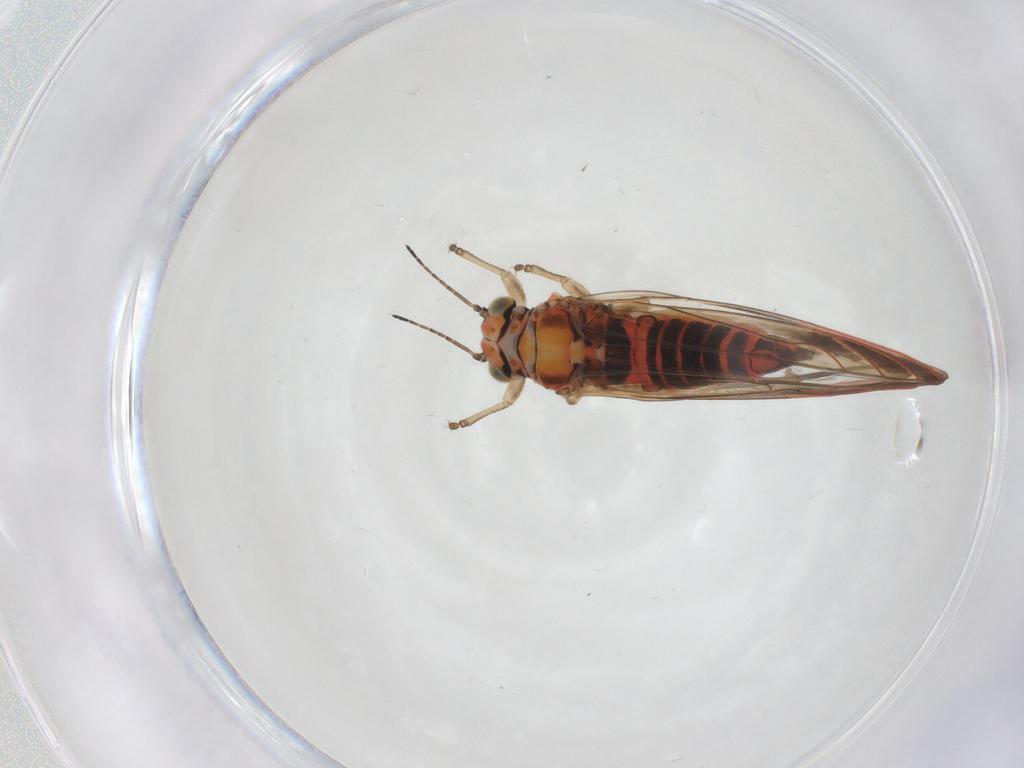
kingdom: Animalia
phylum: Arthropoda
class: Insecta
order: Hemiptera
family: Aphalaridae
